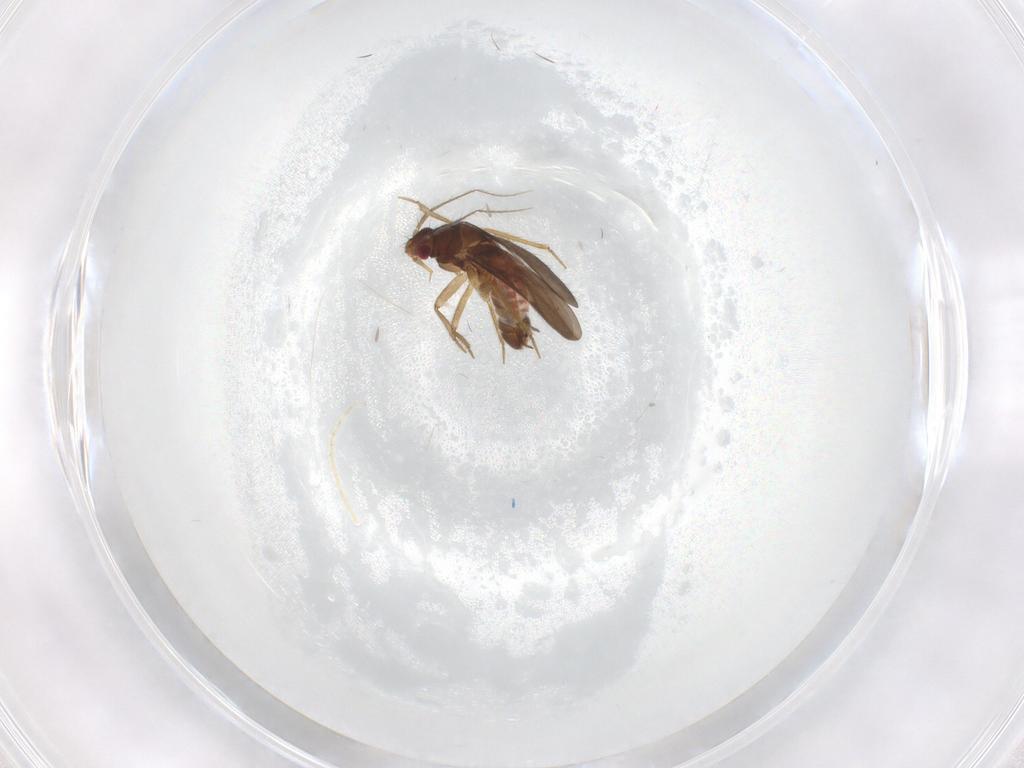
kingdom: Animalia
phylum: Arthropoda
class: Insecta
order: Hemiptera
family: Ceratocombidae
